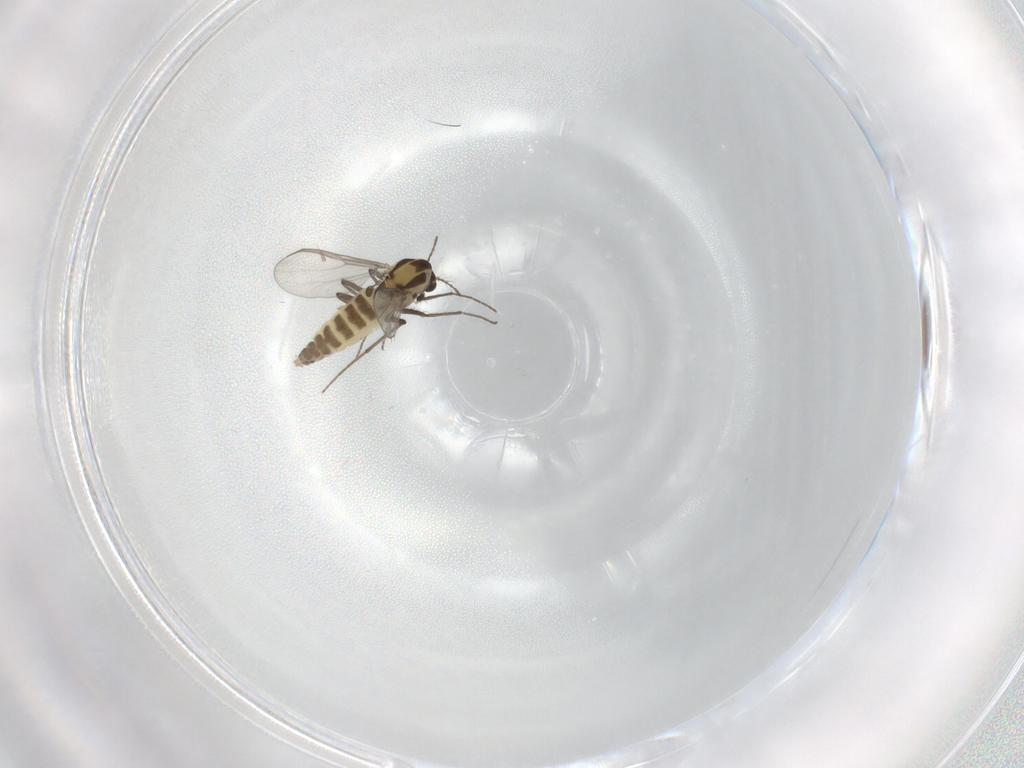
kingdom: Animalia
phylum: Arthropoda
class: Insecta
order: Diptera
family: Chironomidae
